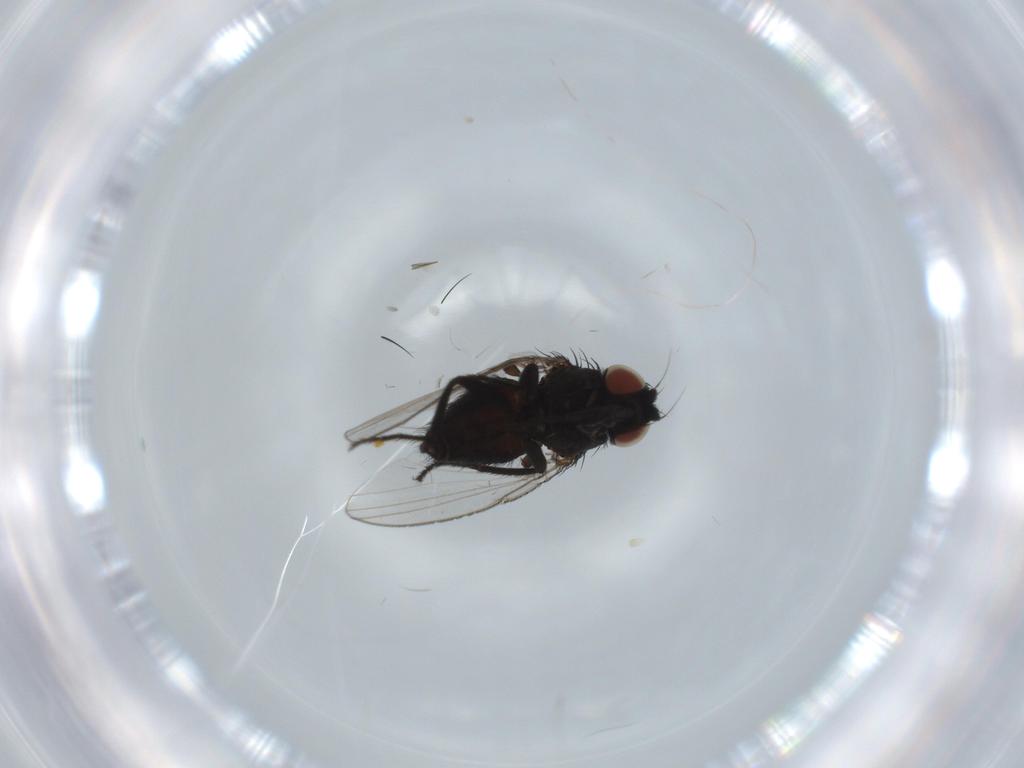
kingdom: Animalia
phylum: Arthropoda
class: Insecta
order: Diptera
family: Milichiidae
